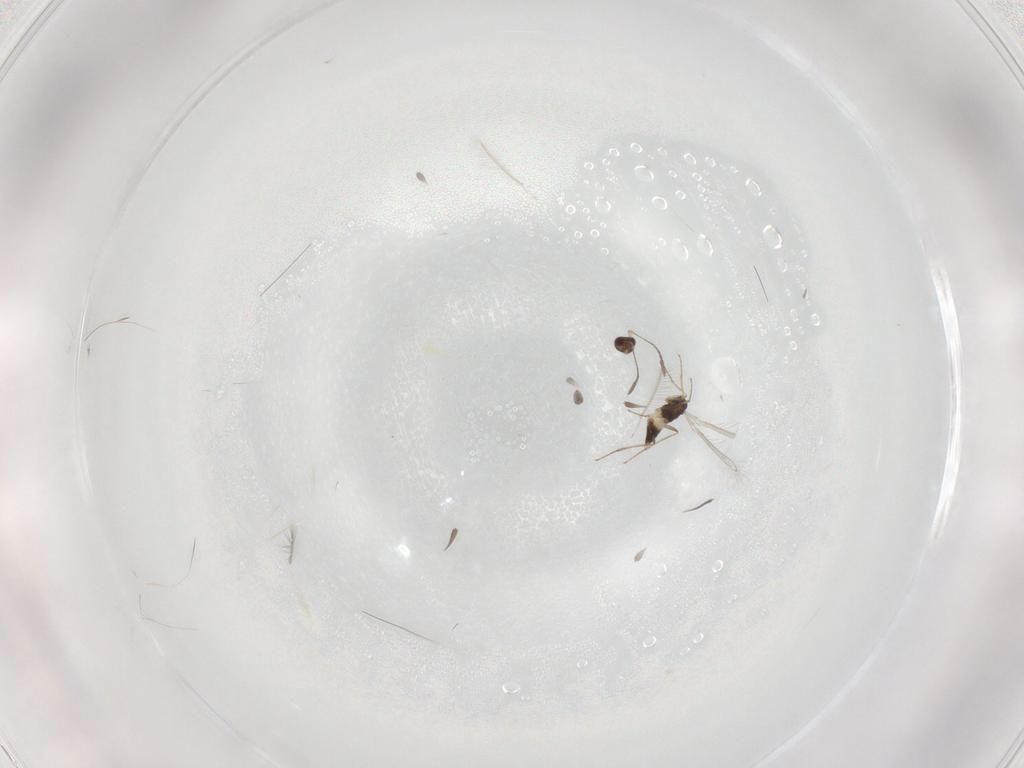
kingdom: Animalia
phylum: Arthropoda
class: Insecta
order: Hymenoptera
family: Mymaridae
